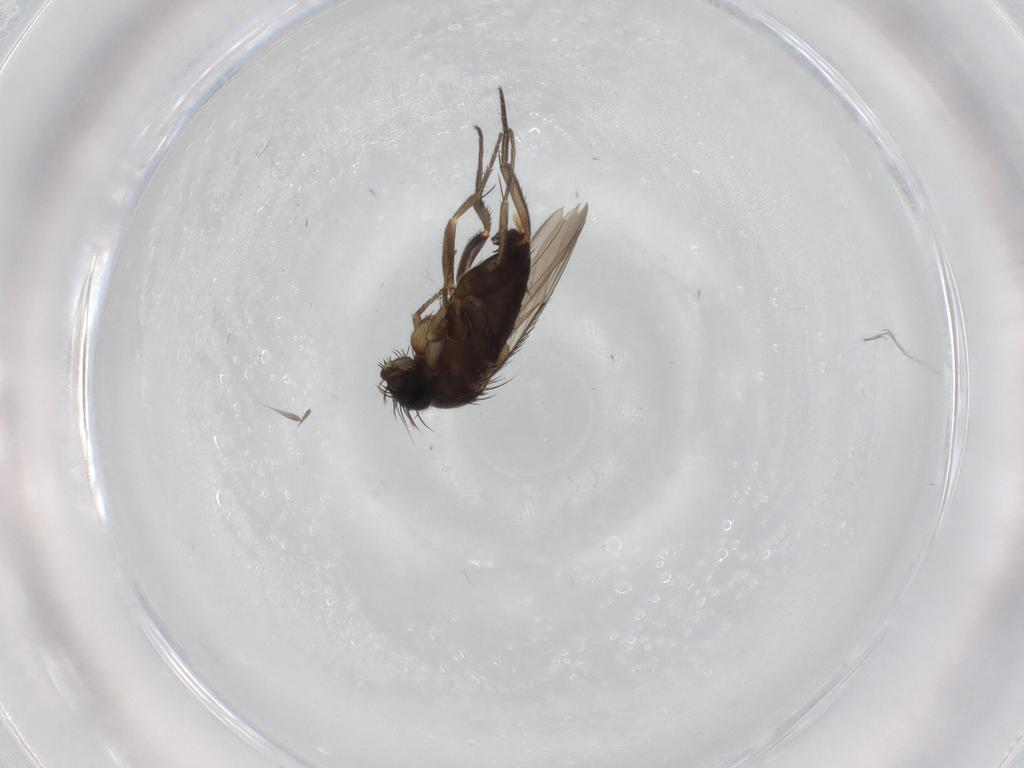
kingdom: Animalia
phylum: Arthropoda
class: Insecta
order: Diptera
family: Phoridae
